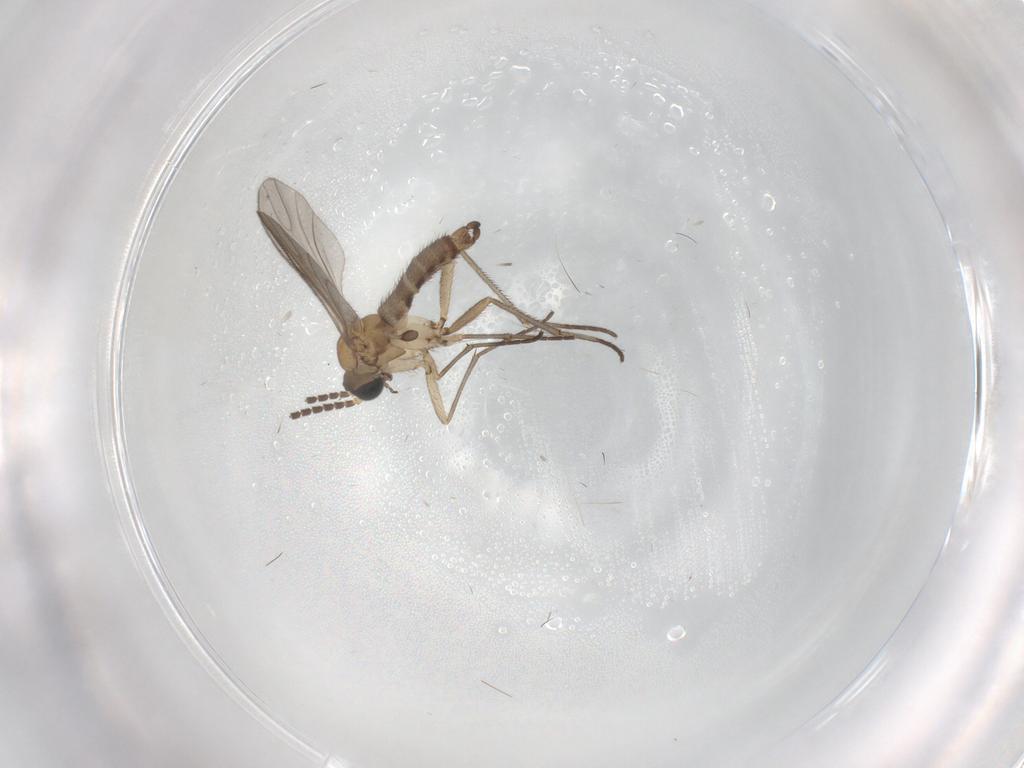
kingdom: Animalia
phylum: Arthropoda
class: Insecta
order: Diptera
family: Sciaridae
